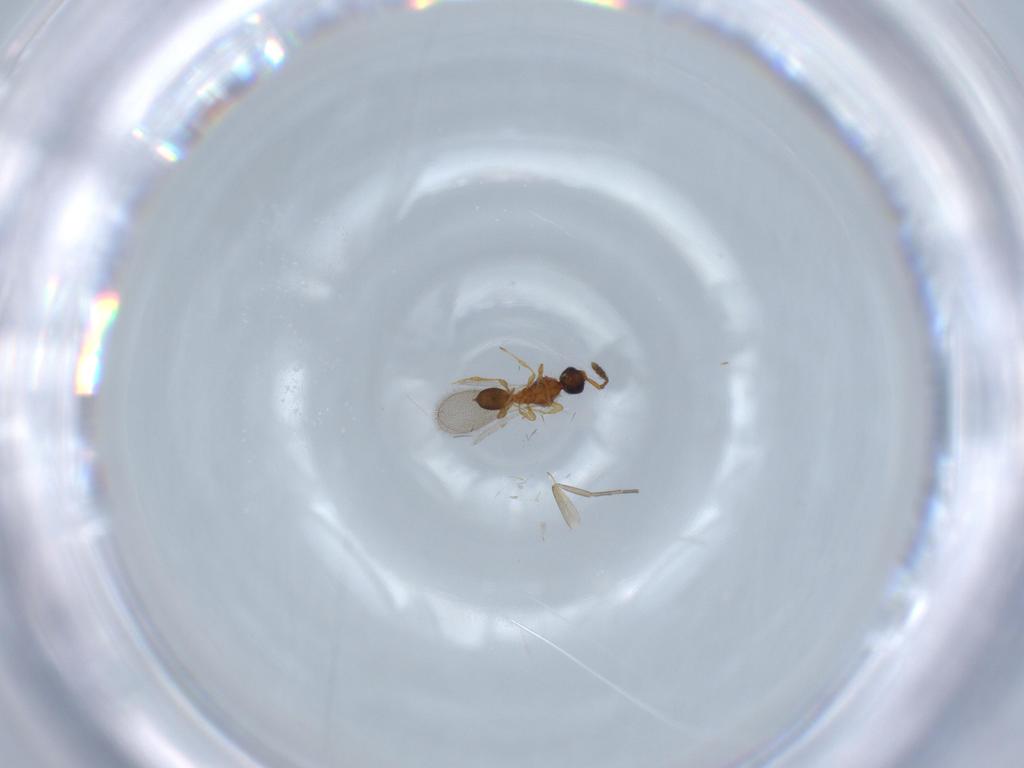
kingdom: Animalia
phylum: Arthropoda
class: Insecta
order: Hymenoptera
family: Diapriidae
